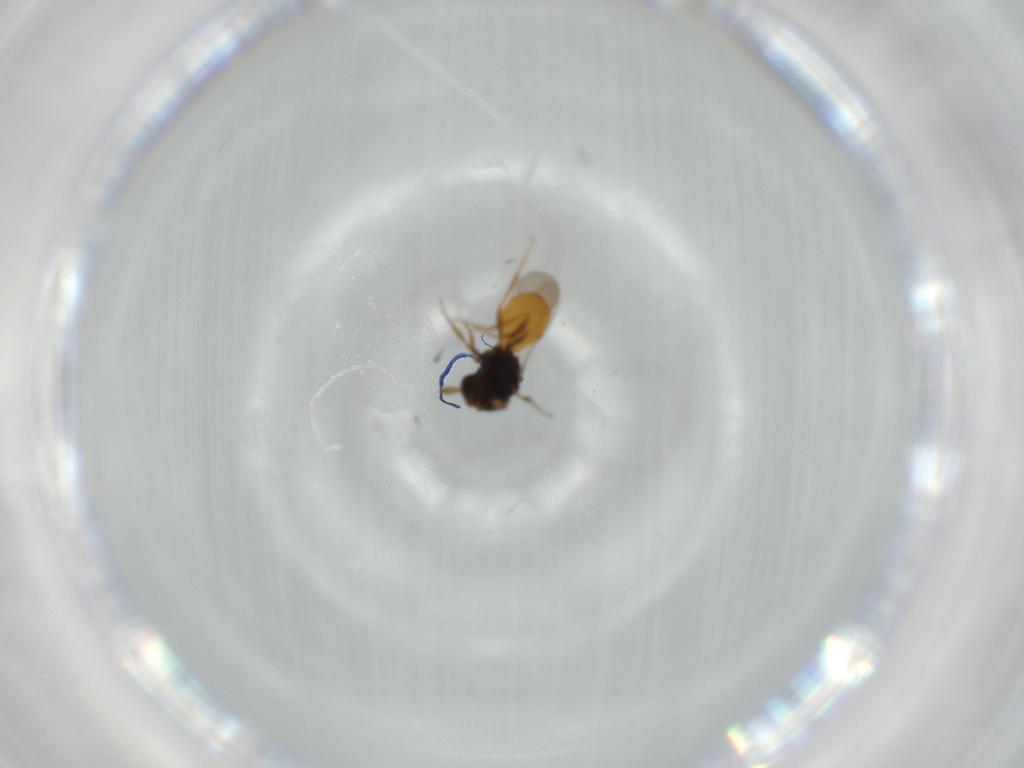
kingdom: Animalia
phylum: Arthropoda
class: Insecta
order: Hymenoptera
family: Scelionidae
